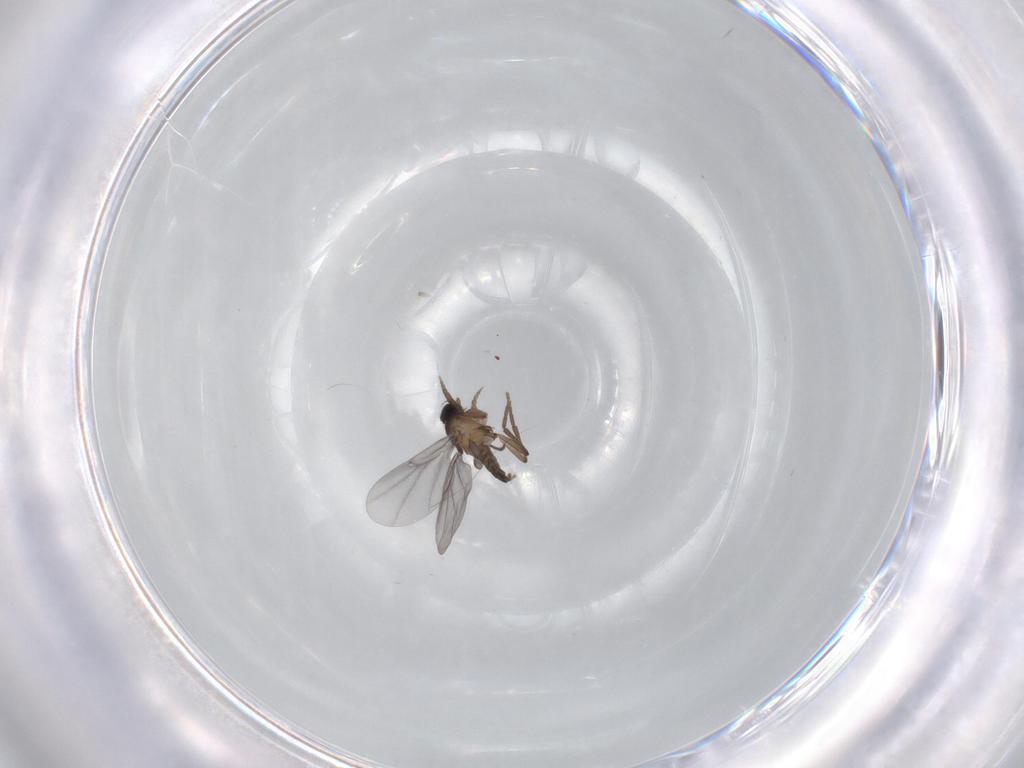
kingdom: Animalia
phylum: Arthropoda
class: Insecta
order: Diptera
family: Phoridae
